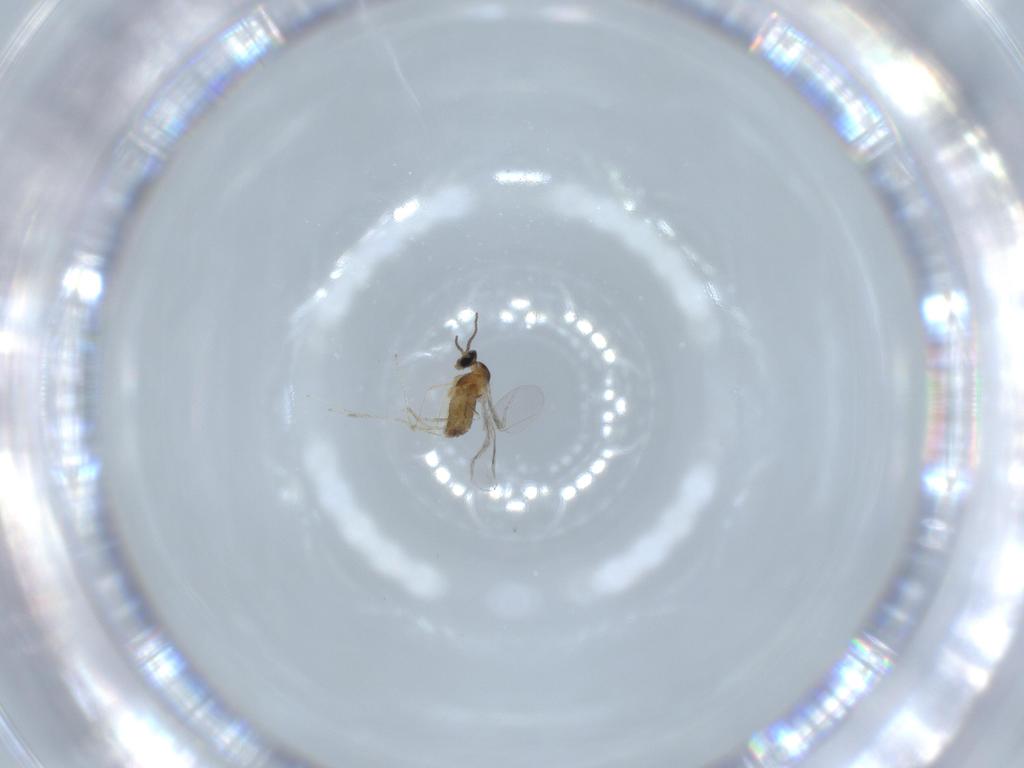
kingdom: Animalia
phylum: Arthropoda
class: Insecta
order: Diptera
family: Cecidomyiidae
